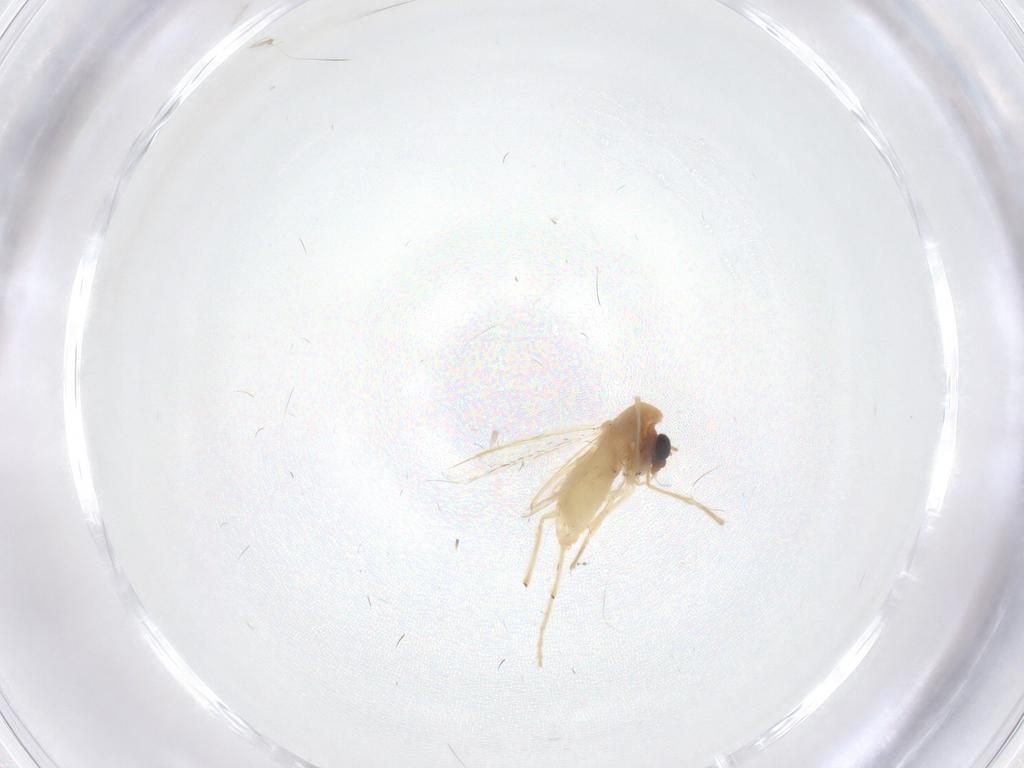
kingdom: Animalia
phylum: Arthropoda
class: Insecta
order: Diptera
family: Chironomidae
